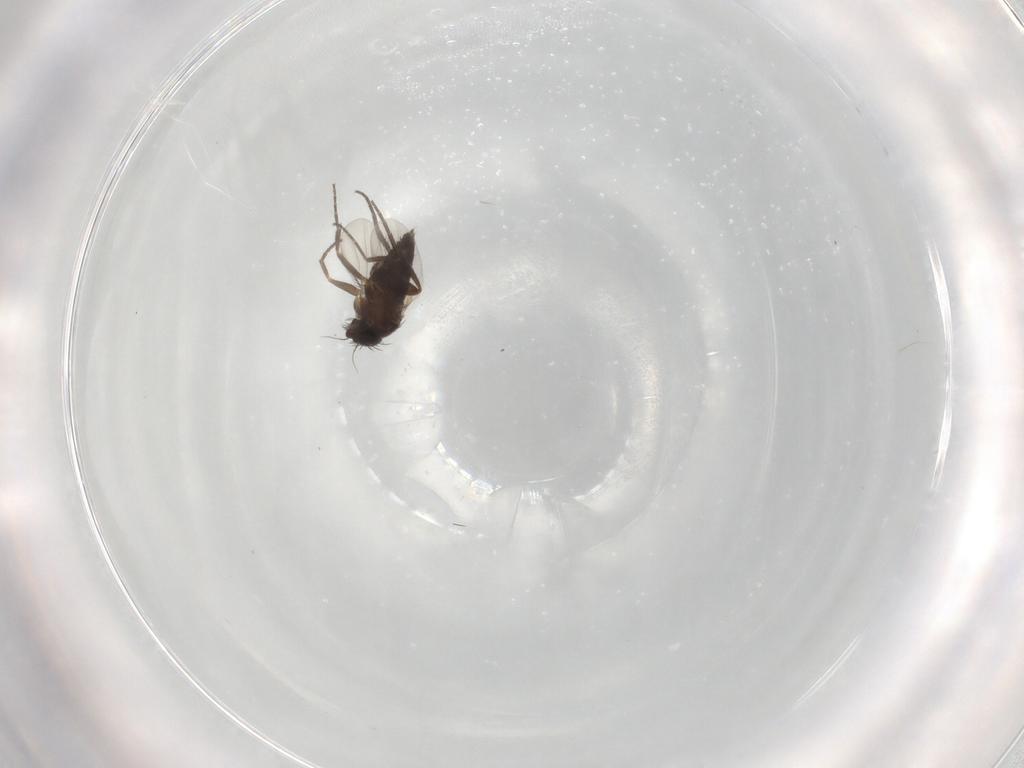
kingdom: Animalia
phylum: Arthropoda
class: Insecta
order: Diptera
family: Phoridae
